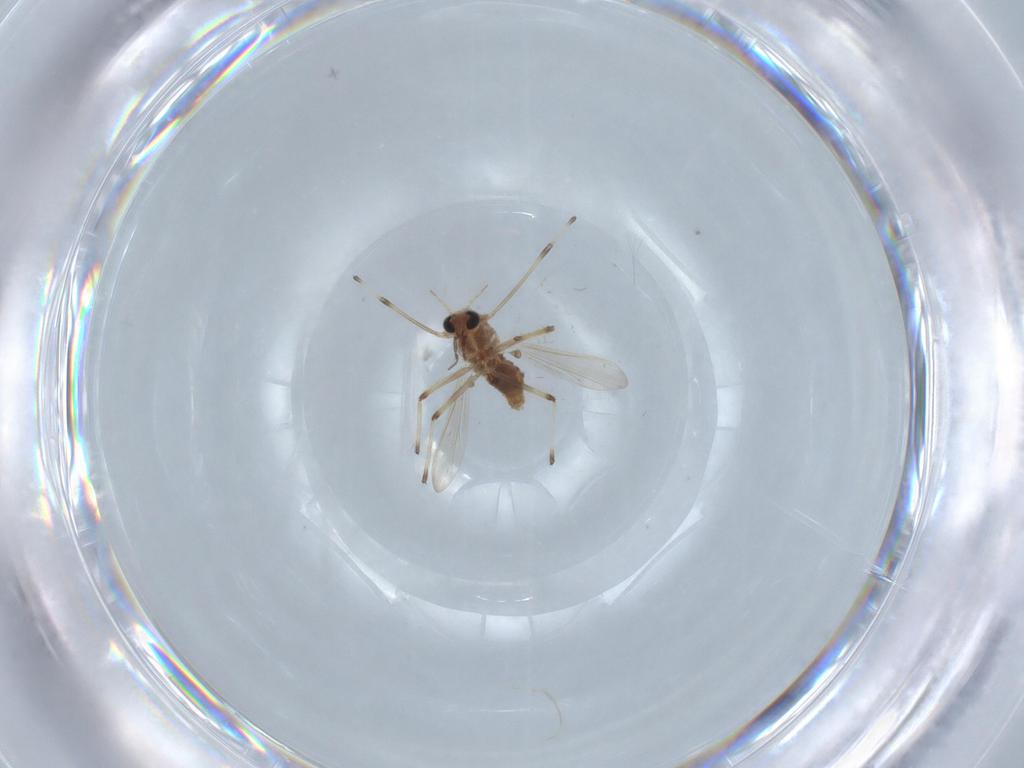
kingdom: Animalia
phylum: Arthropoda
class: Insecta
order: Diptera
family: Chironomidae
